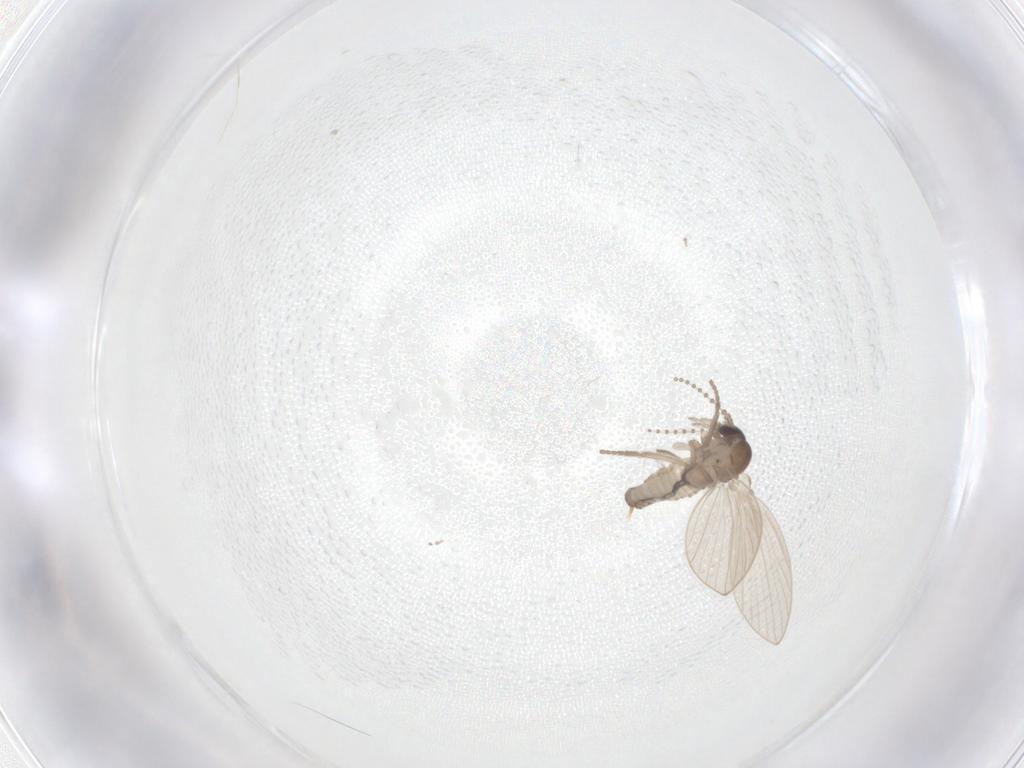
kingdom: Animalia
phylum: Arthropoda
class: Insecta
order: Diptera
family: Psychodidae
